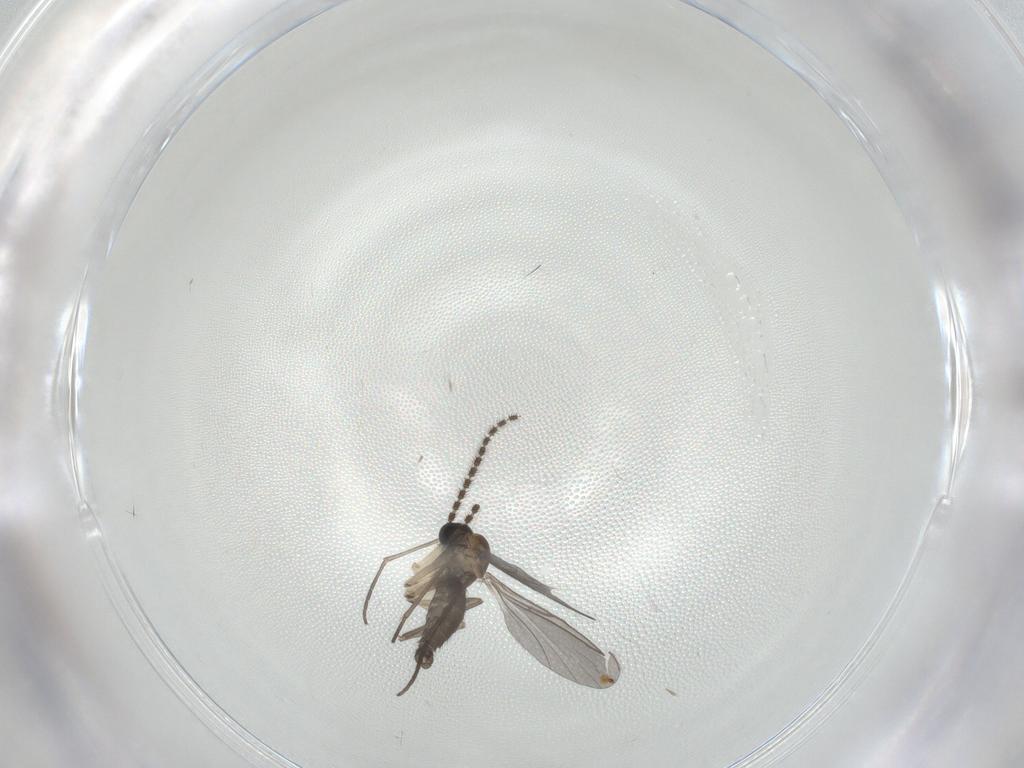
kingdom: Animalia
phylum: Arthropoda
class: Insecta
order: Diptera
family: Sciaridae
